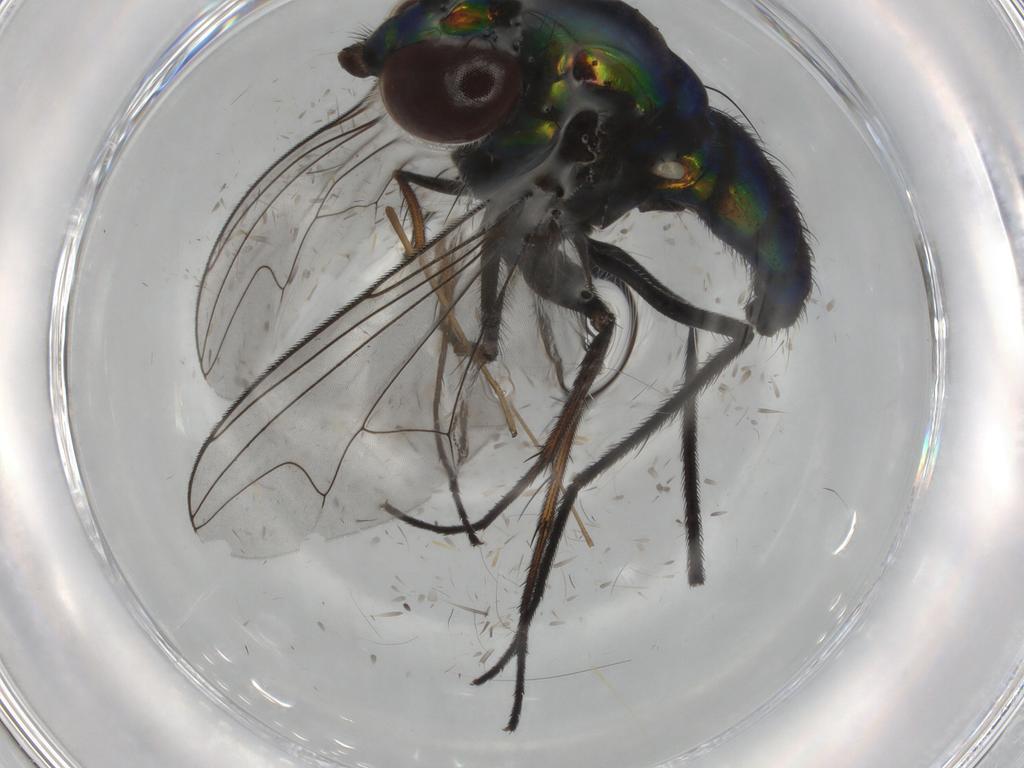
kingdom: Animalia
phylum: Arthropoda
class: Insecta
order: Diptera
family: Dolichopodidae
